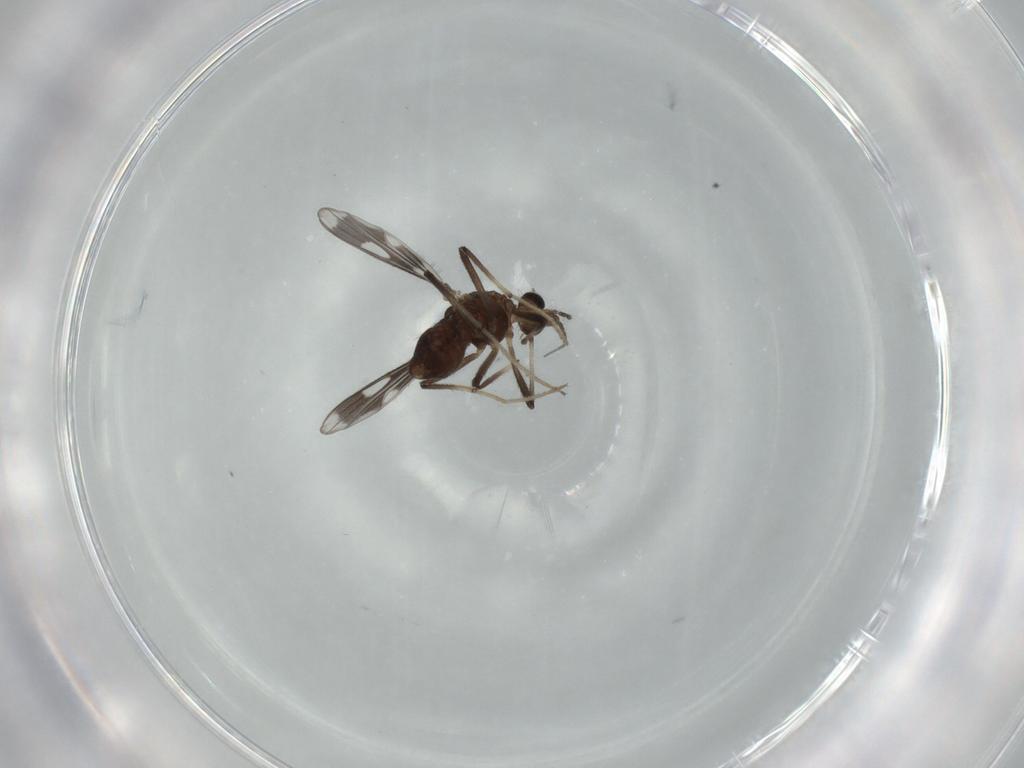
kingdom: Animalia
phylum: Arthropoda
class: Insecta
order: Diptera
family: Chironomidae
